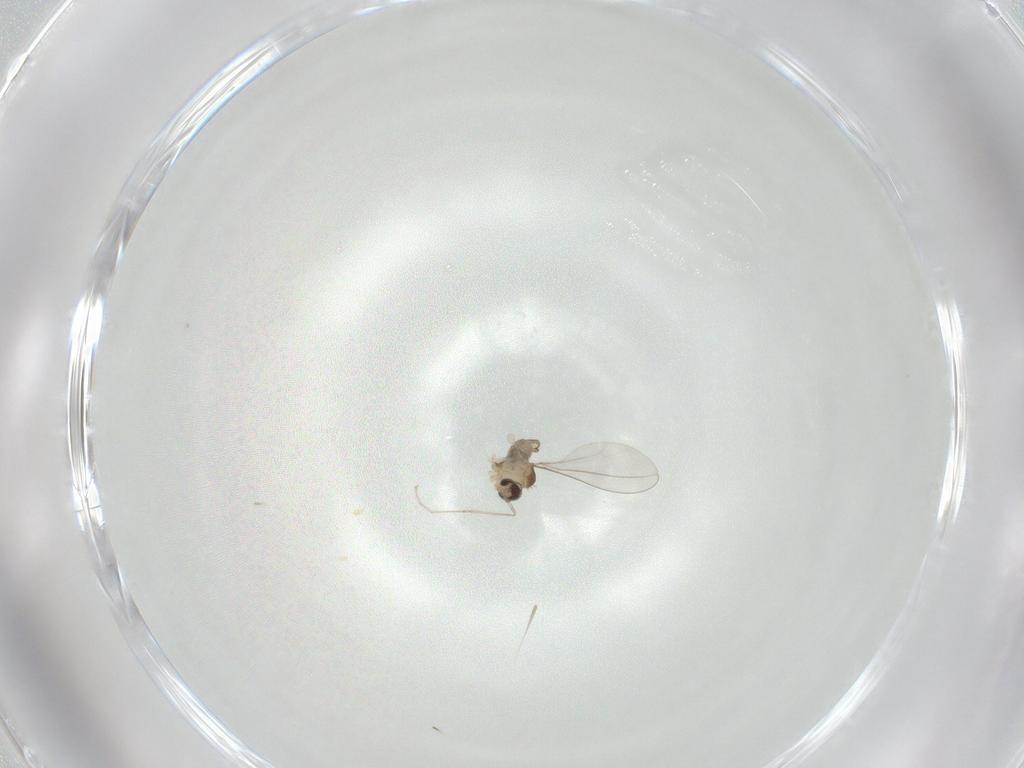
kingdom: Animalia
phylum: Arthropoda
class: Insecta
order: Diptera
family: Cecidomyiidae
